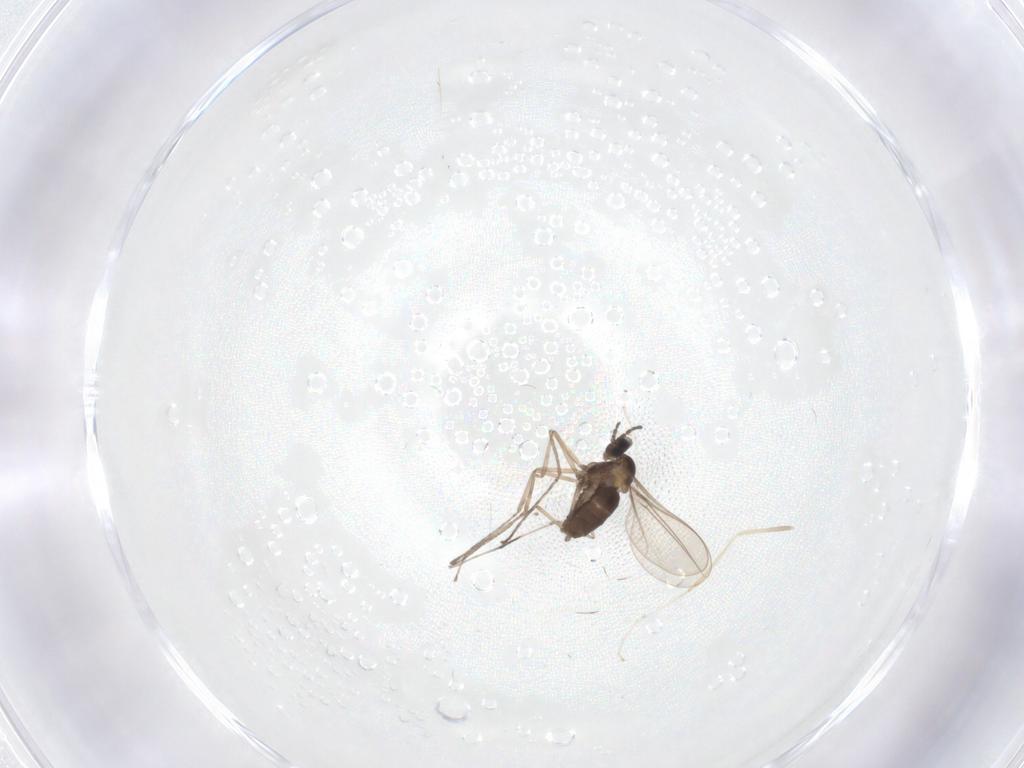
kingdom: Animalia
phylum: Arthropoda
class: Insecta
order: Diptera
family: Cecidomyiidae
